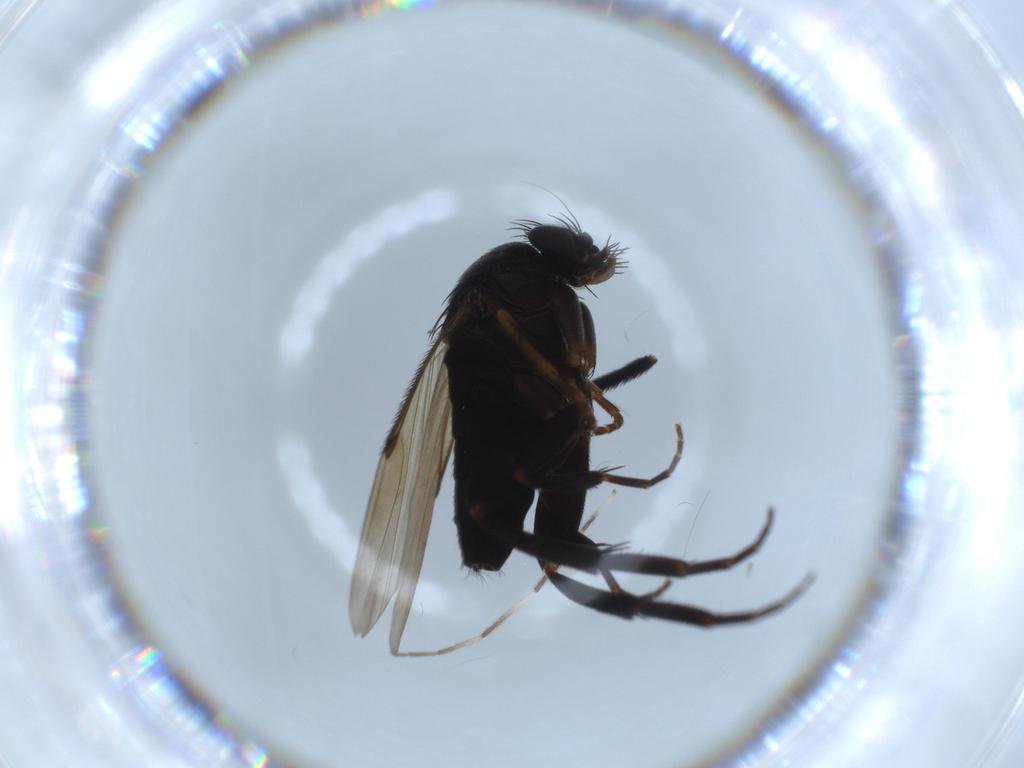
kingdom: Animalia
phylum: Arthropoda
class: Insecta
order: Diptera
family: Phoridae
